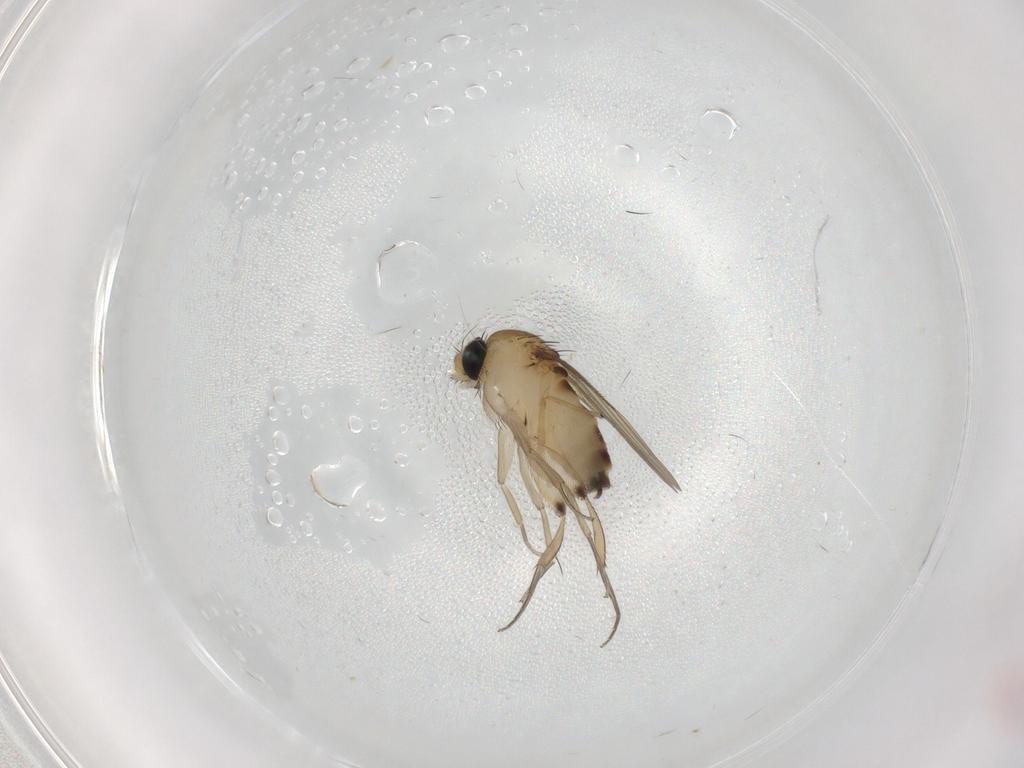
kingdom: Animalia
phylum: Arthropoda
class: Insecta
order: Diptera
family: Cecidomyiidae
